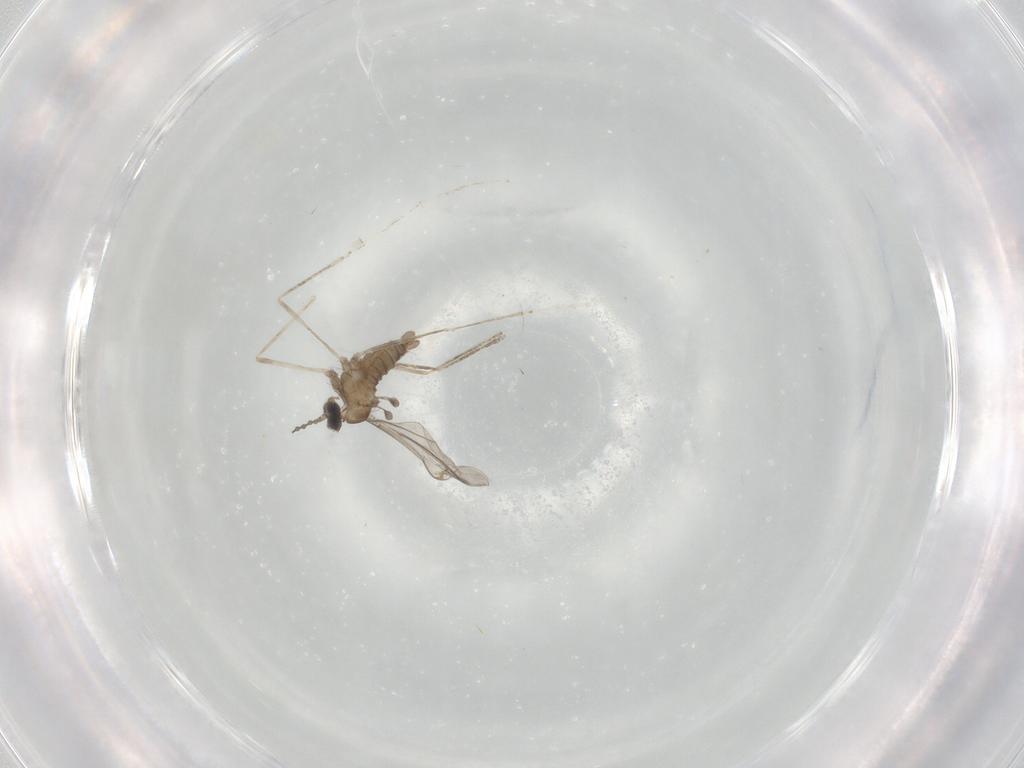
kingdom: Animalia
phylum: Arthropoda
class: Insecta
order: Diptera
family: Cecidomyiidae
